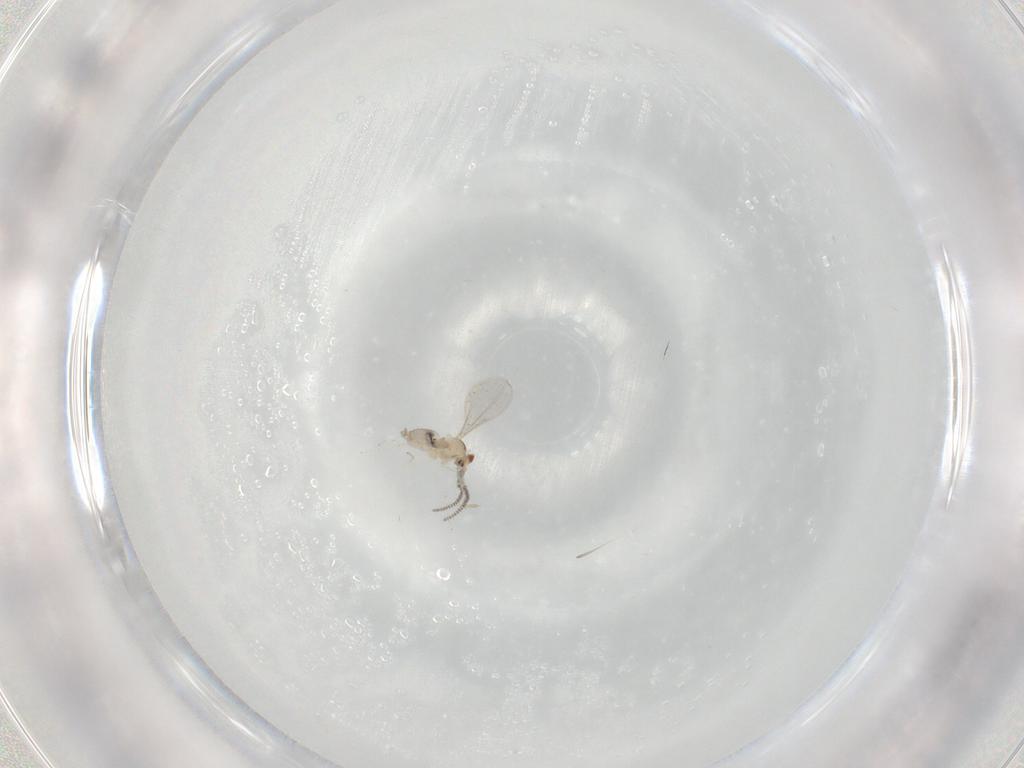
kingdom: Animalia
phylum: Arthropoda
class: Insecta
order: Diptera
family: Cecidomyiidae
